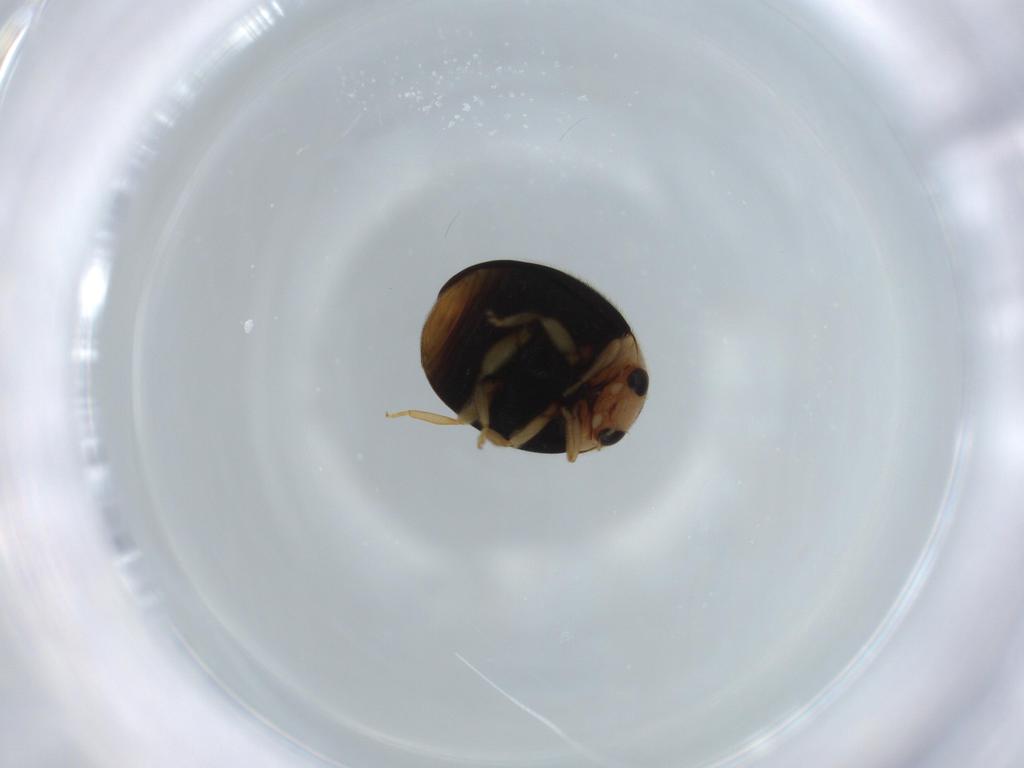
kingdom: Animalia
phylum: Arthropoda
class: Insecta
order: Coleoptera
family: Coccinellidae
